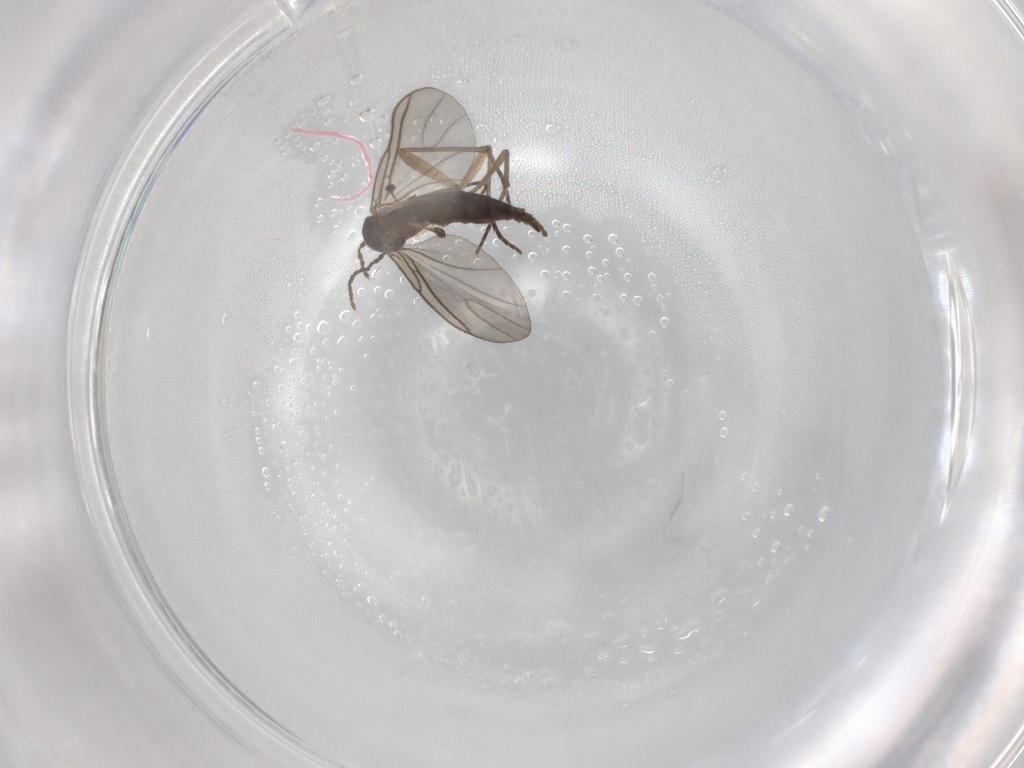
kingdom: Animalia
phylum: Arthropoda
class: Insecta
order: Diptera
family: Sciaridae
